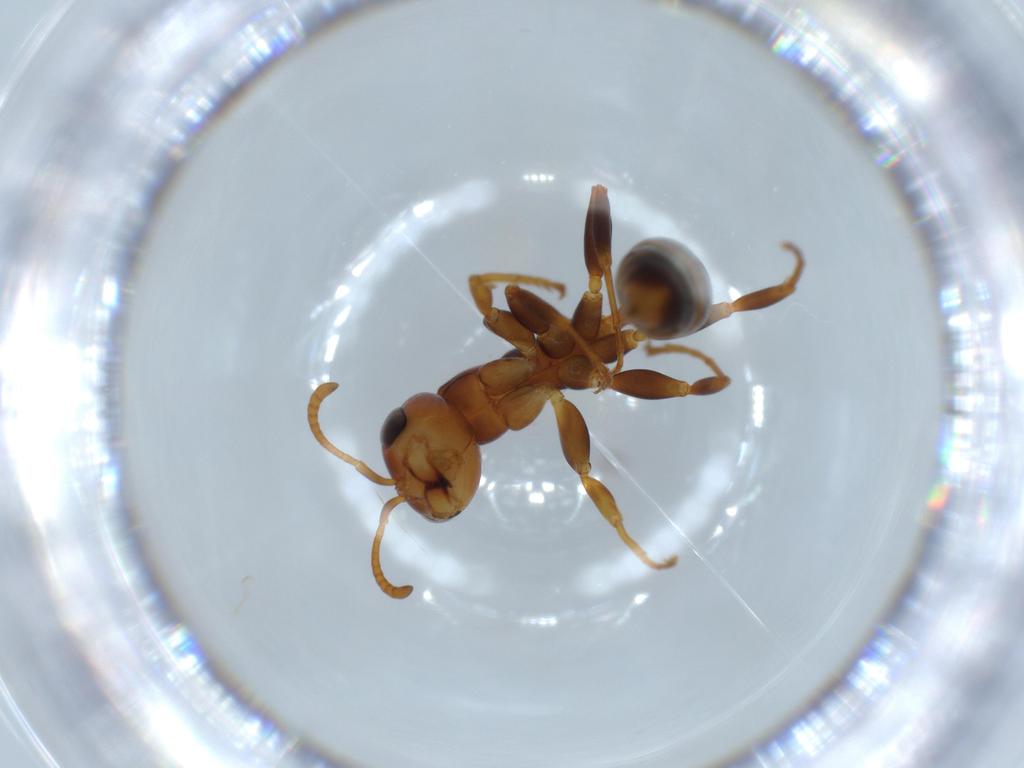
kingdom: Animalia
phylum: Arthropoda
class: Insecta
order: Hymenoptera
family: Formicidae
